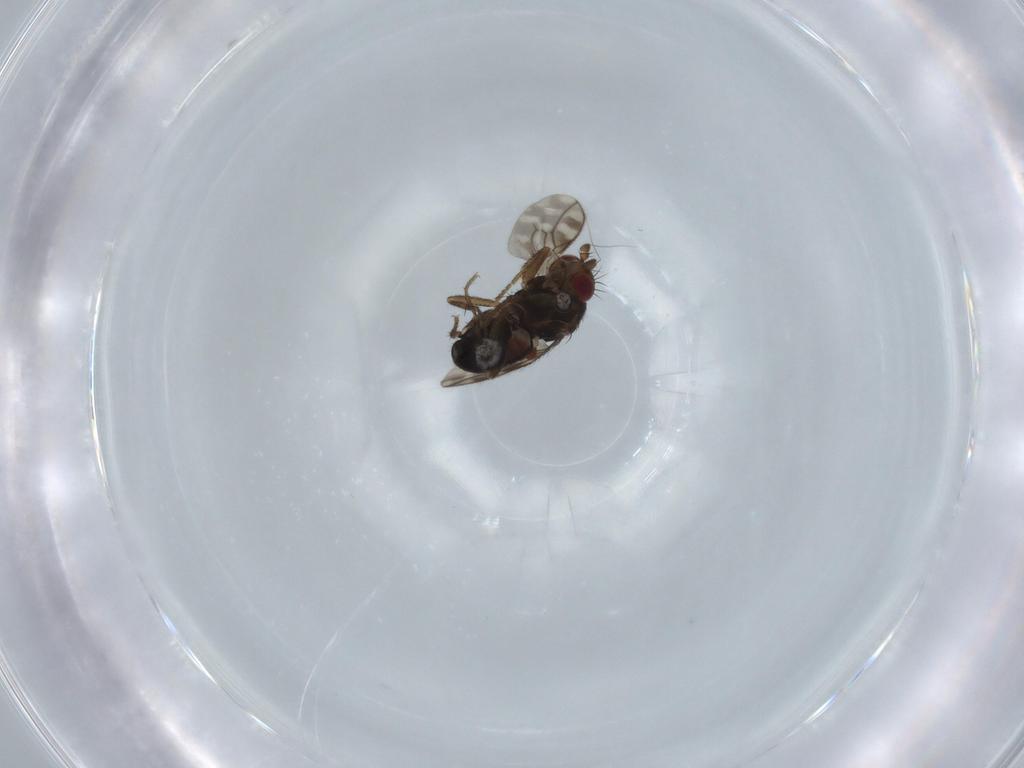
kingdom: Animalia
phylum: Arthropoda
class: Insecta
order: Diptera
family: Sphaeroceridae
